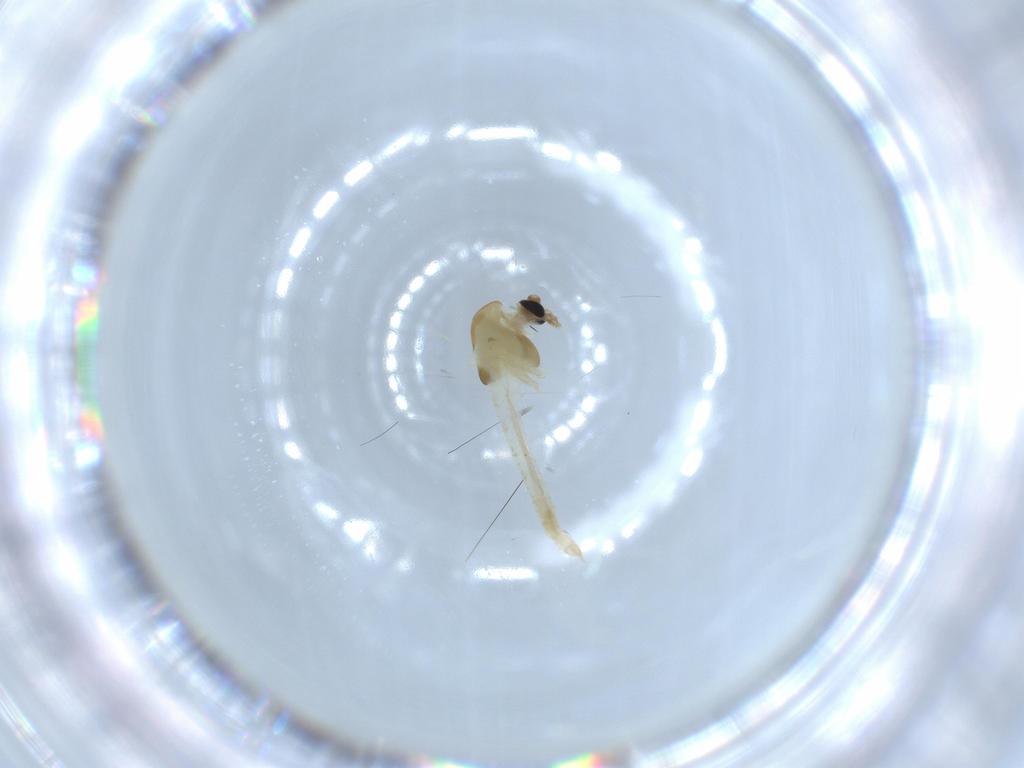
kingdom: Animalia
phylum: Arthropoda
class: Insecta
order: Diptera
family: Chironomidae
